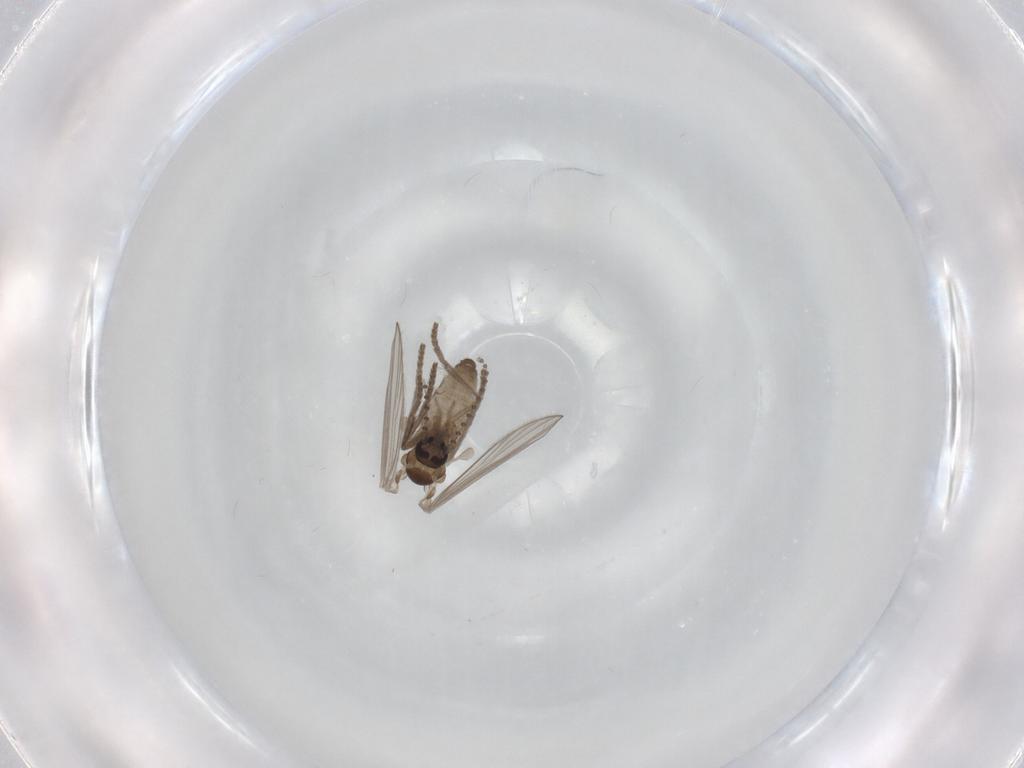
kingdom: Animalia
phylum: Arthropoda
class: Insecta
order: Diptera
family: Psychodidae
